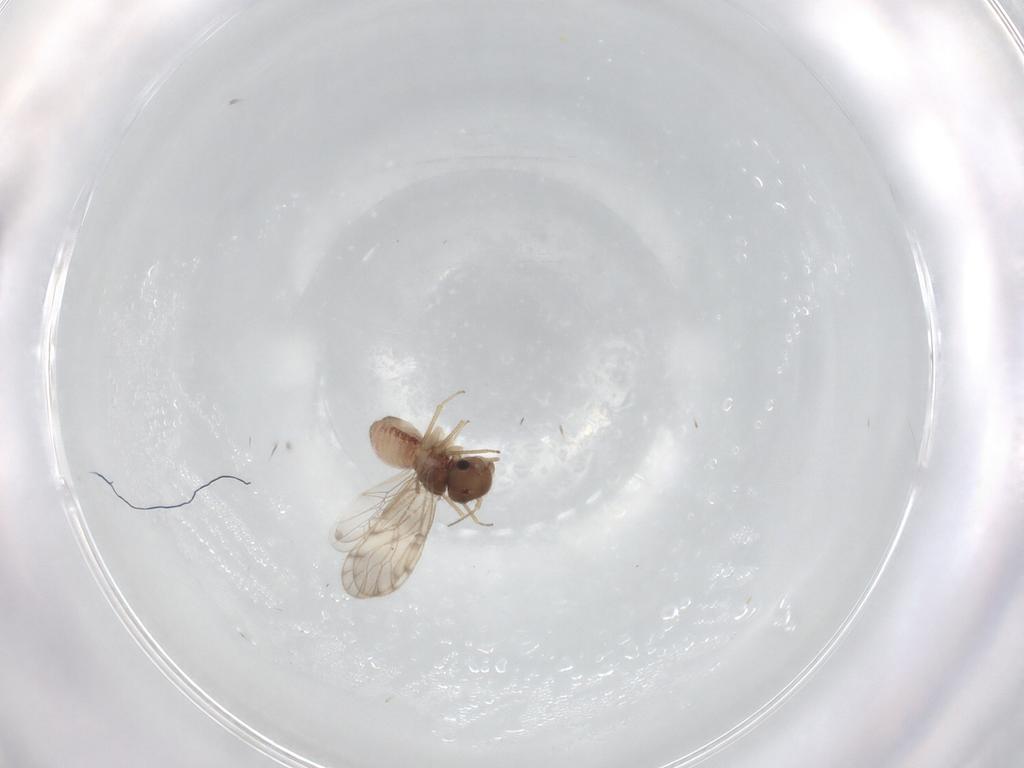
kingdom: Animalia
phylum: Arthropoda
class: Insecta
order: Psocodea
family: Peripsocidae
